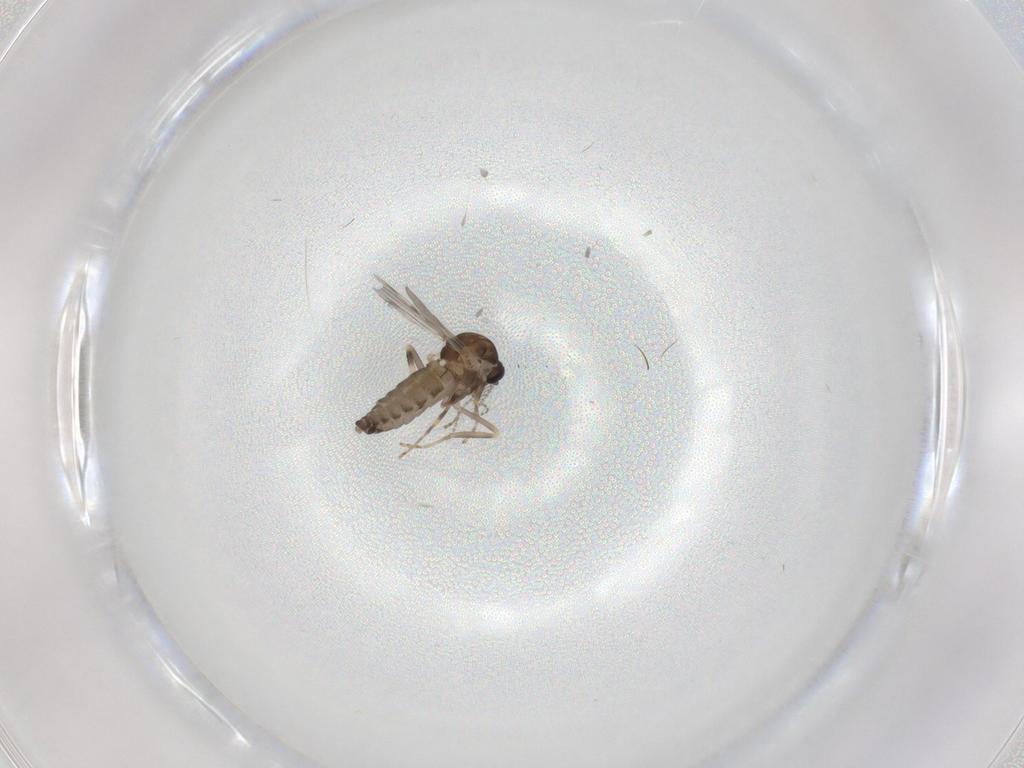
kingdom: Animalia
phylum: Arthropoda
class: Insecta
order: Diptera
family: Ceratopogonidae
